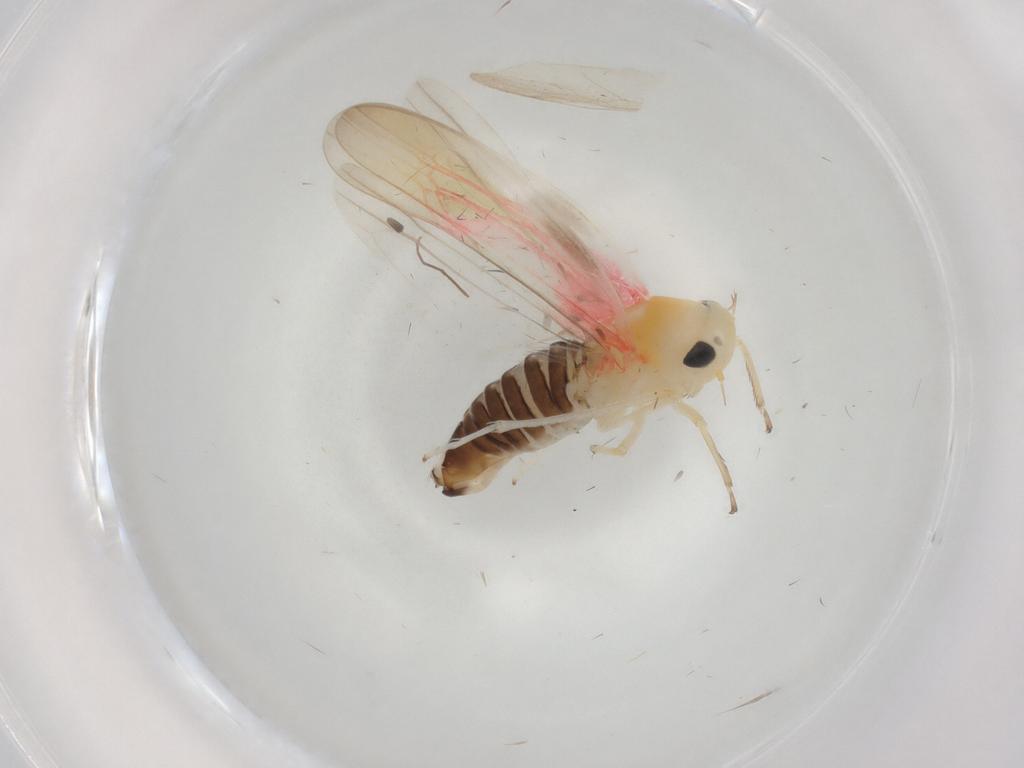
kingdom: Animalia
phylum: Arthropoda
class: Insecta
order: Hemiptera
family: Cicadellidae
